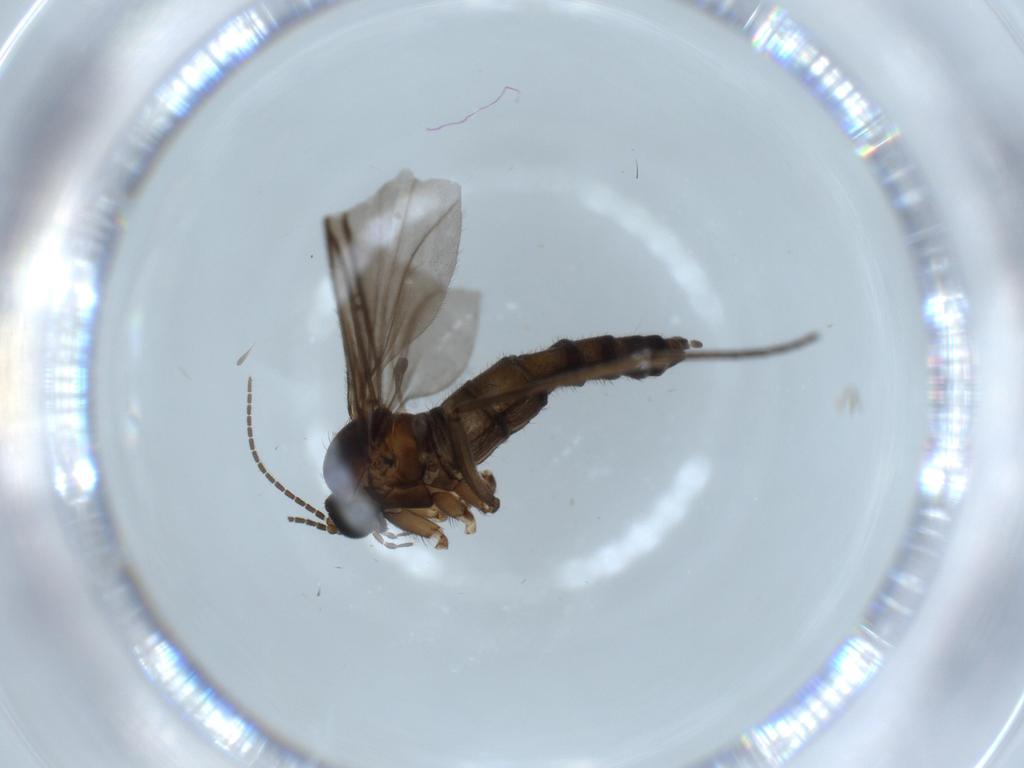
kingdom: Animalia
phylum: Arthropoda
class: Insecta
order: Diptera
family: Sciaridae
